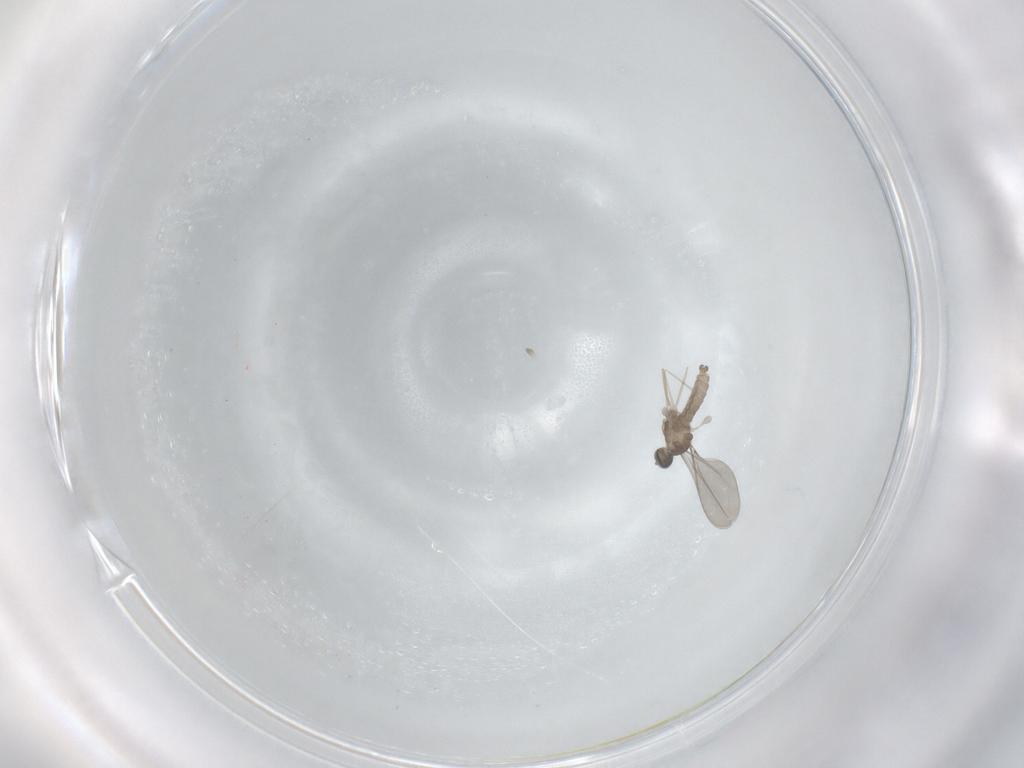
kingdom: Animalia
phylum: Arthropoda
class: Insecta
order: Diptera
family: Cecidomyiidae
